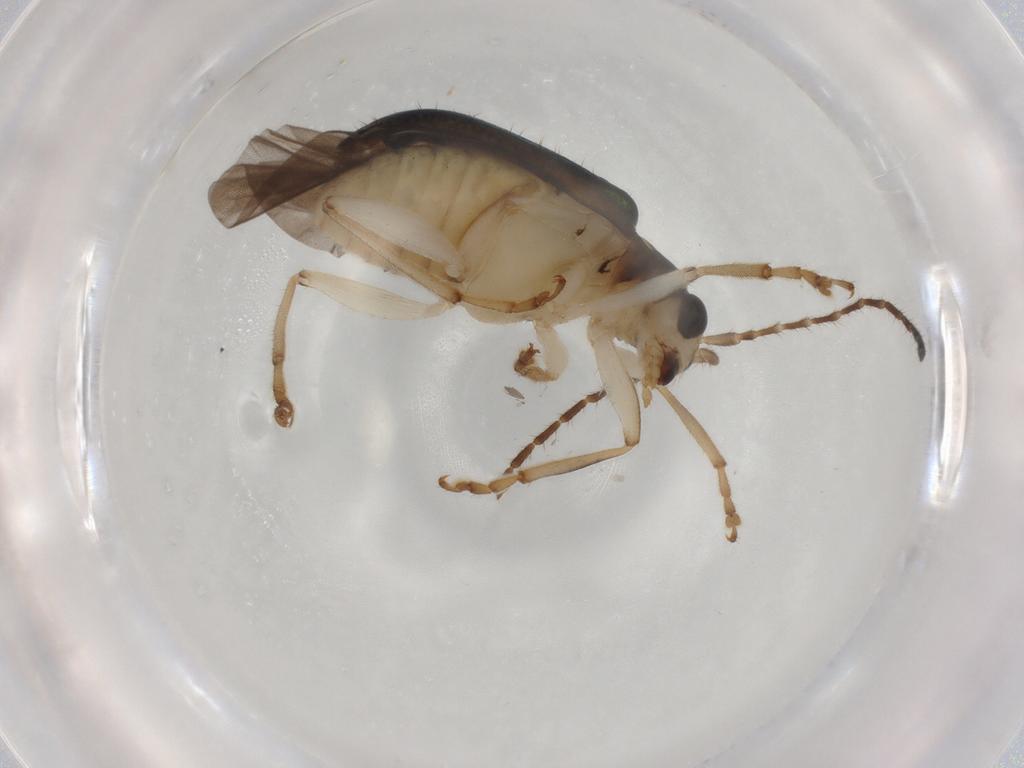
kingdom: Animalia
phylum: Arthropoda
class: Insecta
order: Coleoptera
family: Chrysomelidae
